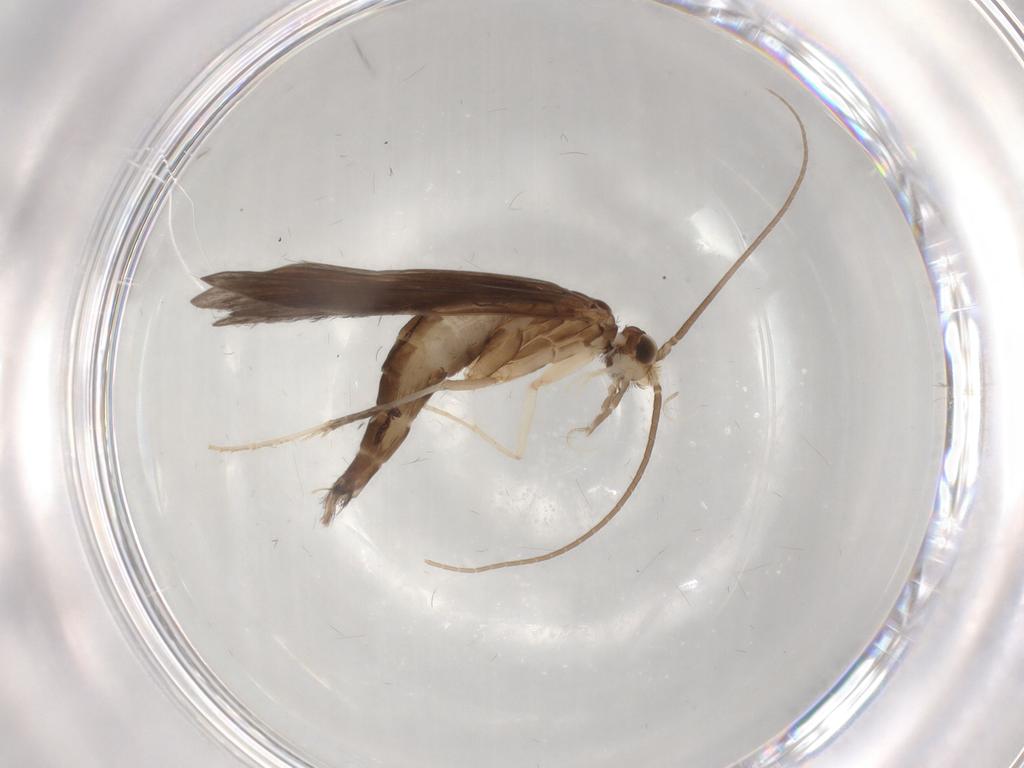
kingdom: Animalia
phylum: Arthropoda
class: Insecta
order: Trichoptera
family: Xiphocentronidae
